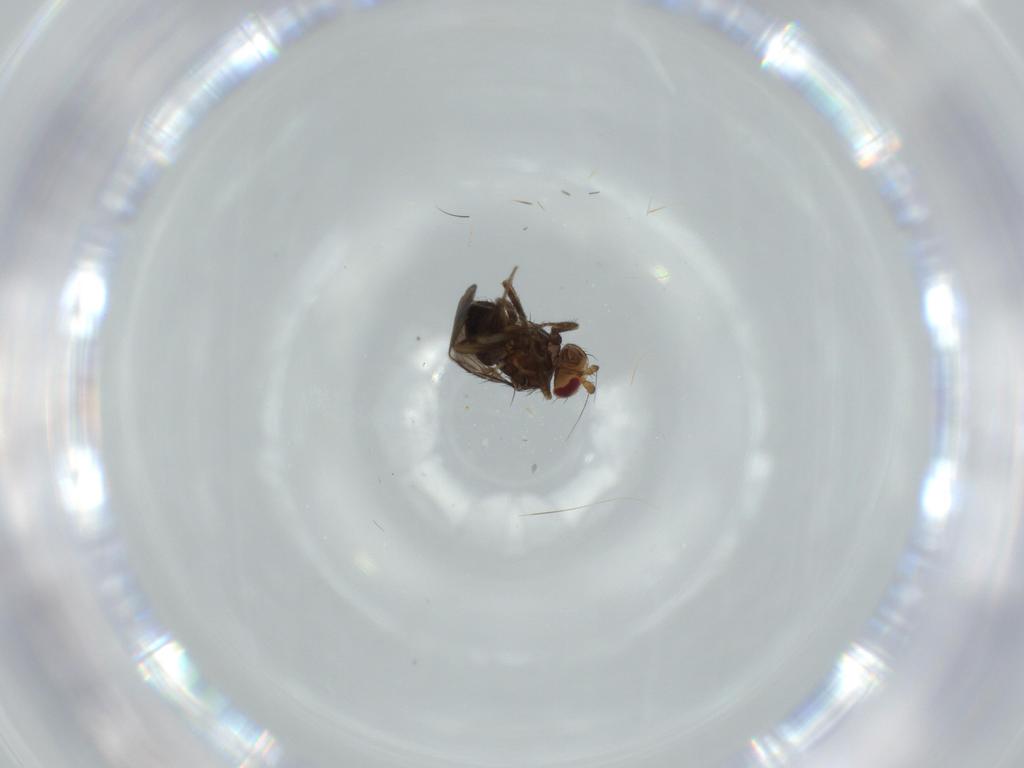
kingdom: Animalia
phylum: Arthropoda
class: Insecta
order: Diptera
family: Sphaeroceridae
